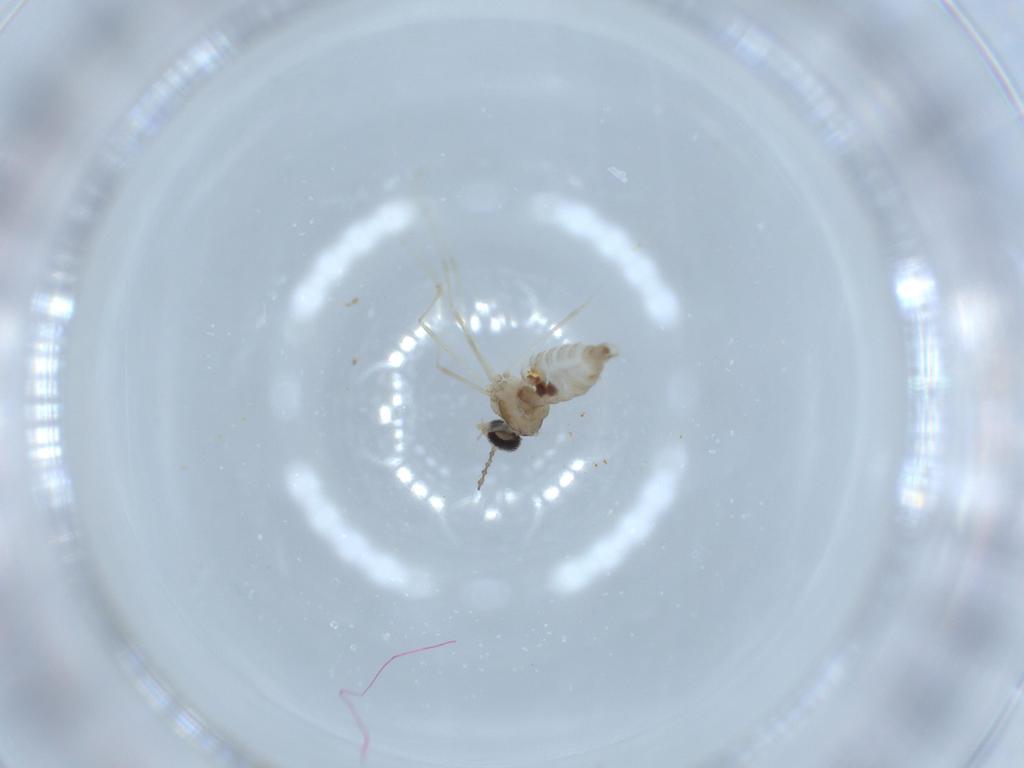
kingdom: Animalia
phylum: Arthropoda
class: Insecta
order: Diptera
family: Cecidomyiidae
